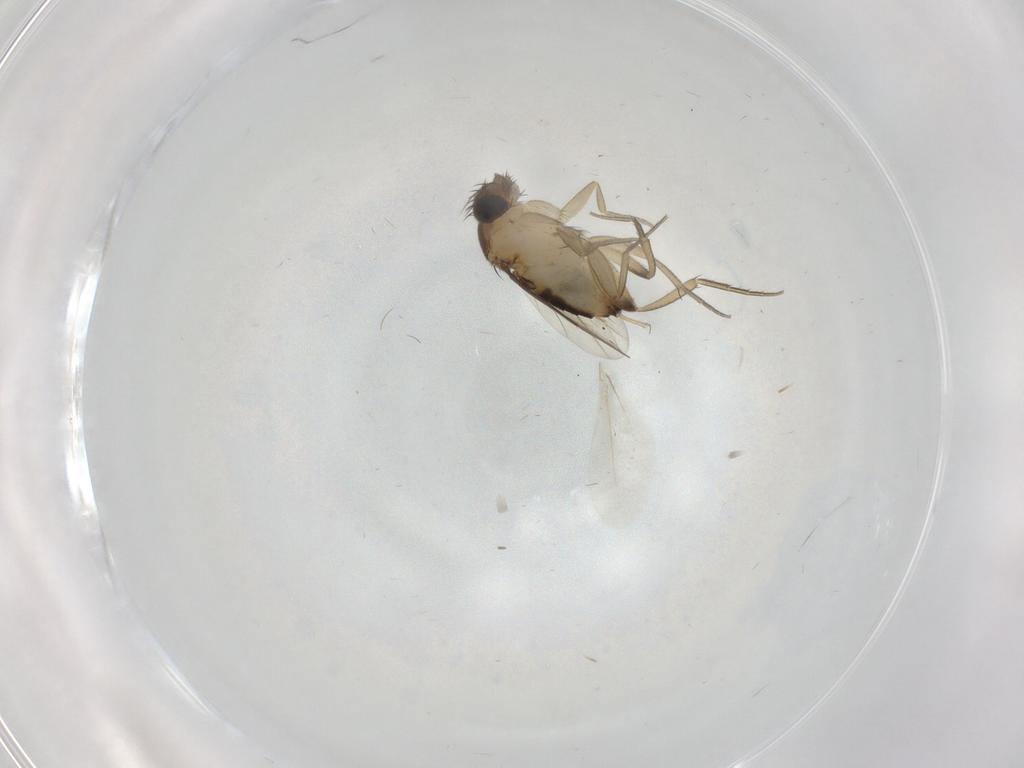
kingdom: Animalia
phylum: Arthropoda
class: Insecta
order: Diptera
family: Phoridae
